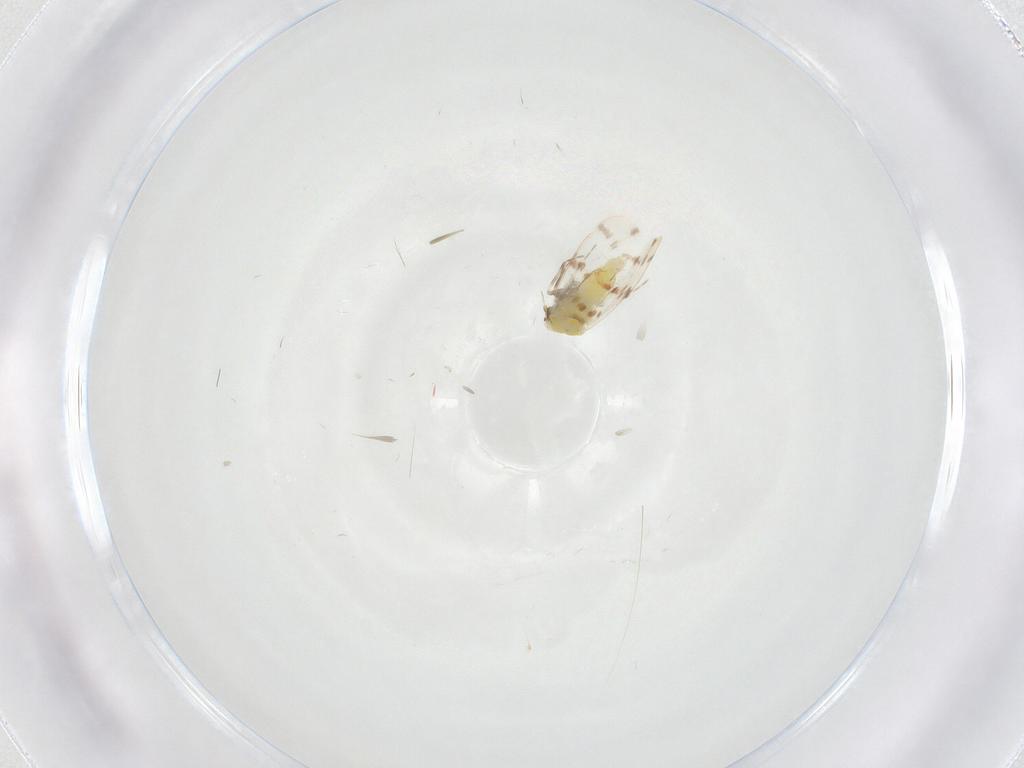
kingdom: Animalia
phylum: Arthropoda
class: Insecta
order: Hemiptera
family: Aleyrodidae
